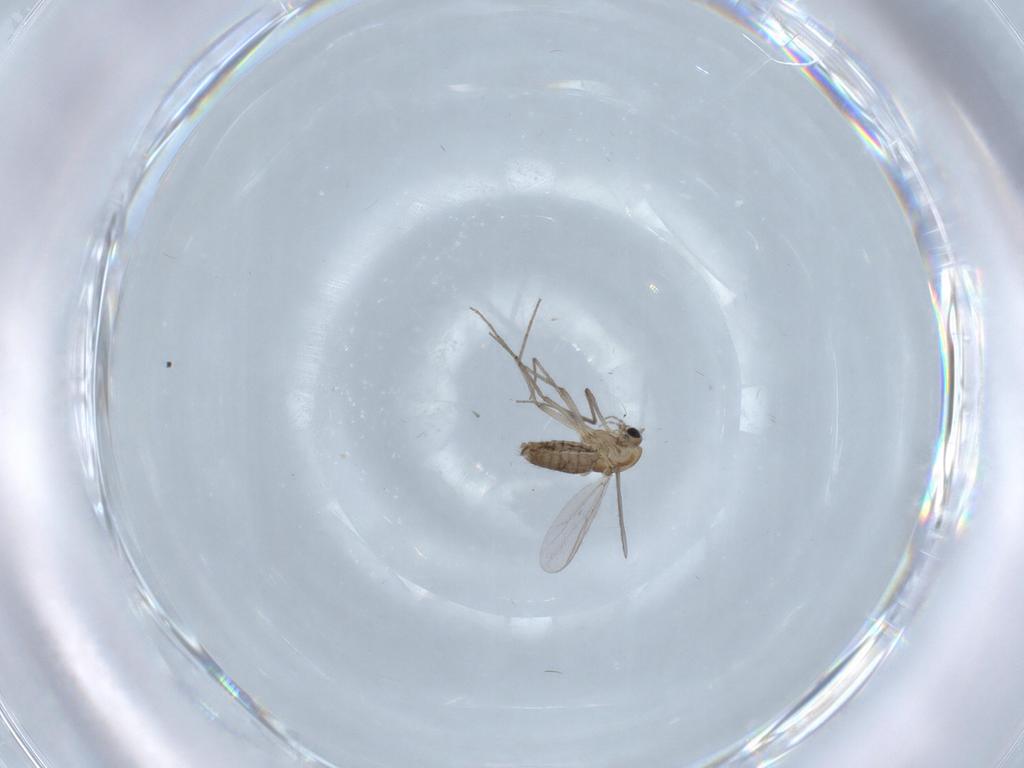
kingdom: Animalia
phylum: Arthropoda
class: Insecta
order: Diptera
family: Chironomidae
